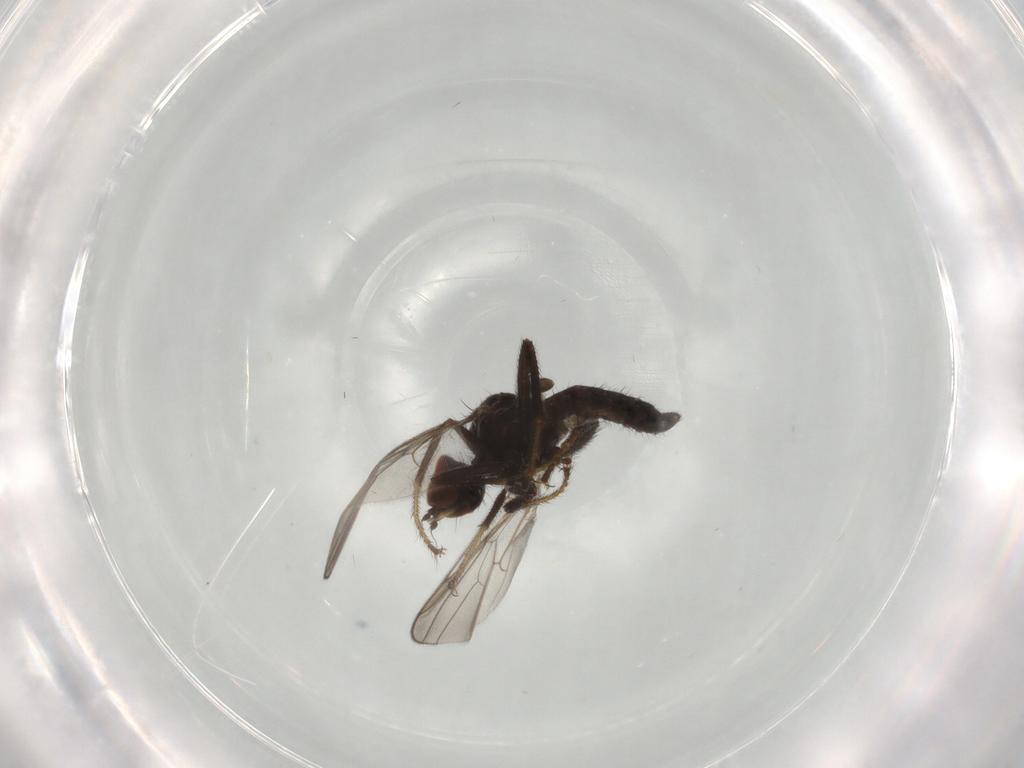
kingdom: Animalia
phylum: Arthropoda
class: Insecta
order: Diptera
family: Hybotidae
